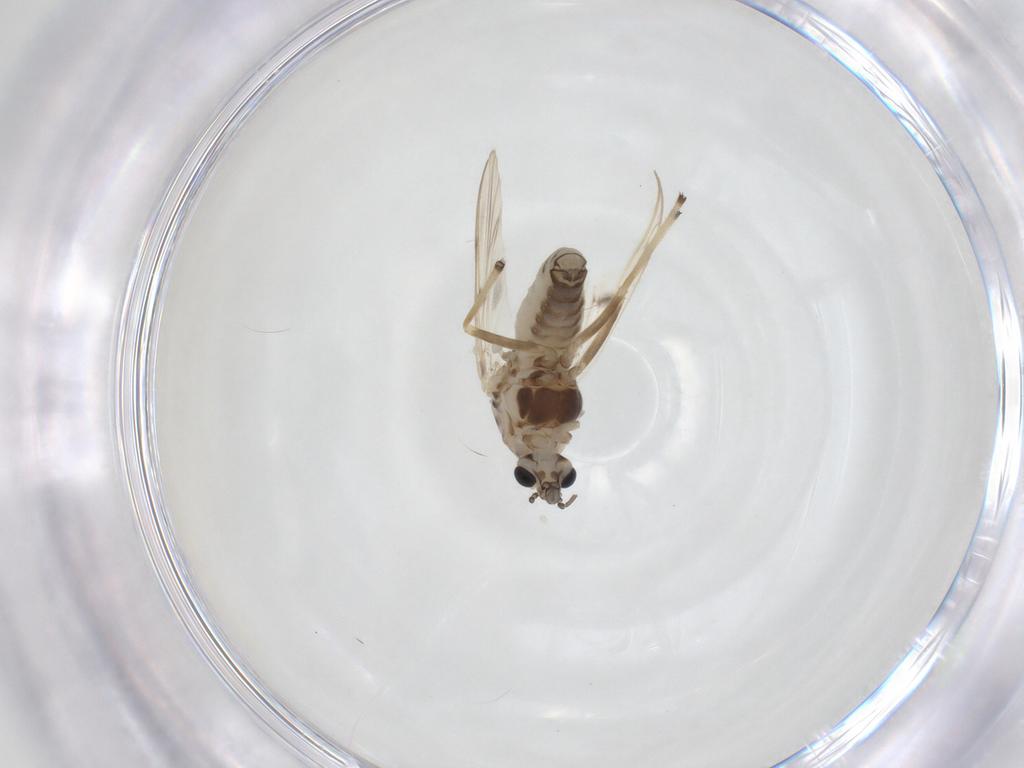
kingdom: Animalia
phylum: Arthropoda
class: Insecta
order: Diptera
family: Chironomidae
